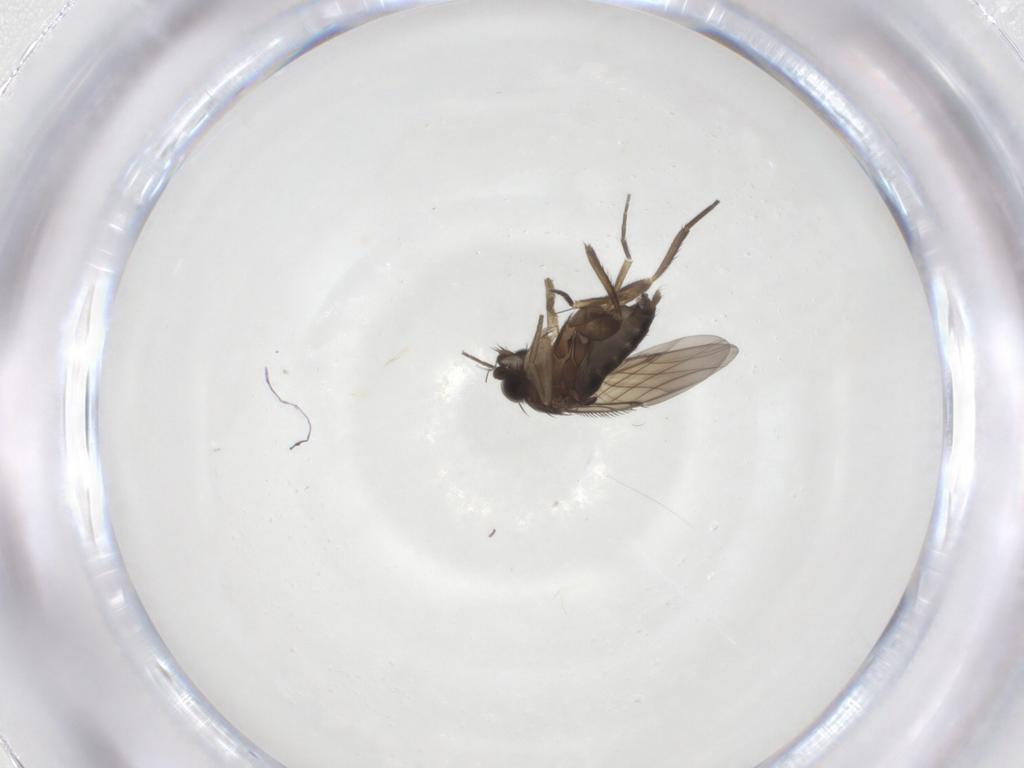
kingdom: Animalia
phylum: Arthropoda
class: Insecta
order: Diptera
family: Phoridae
